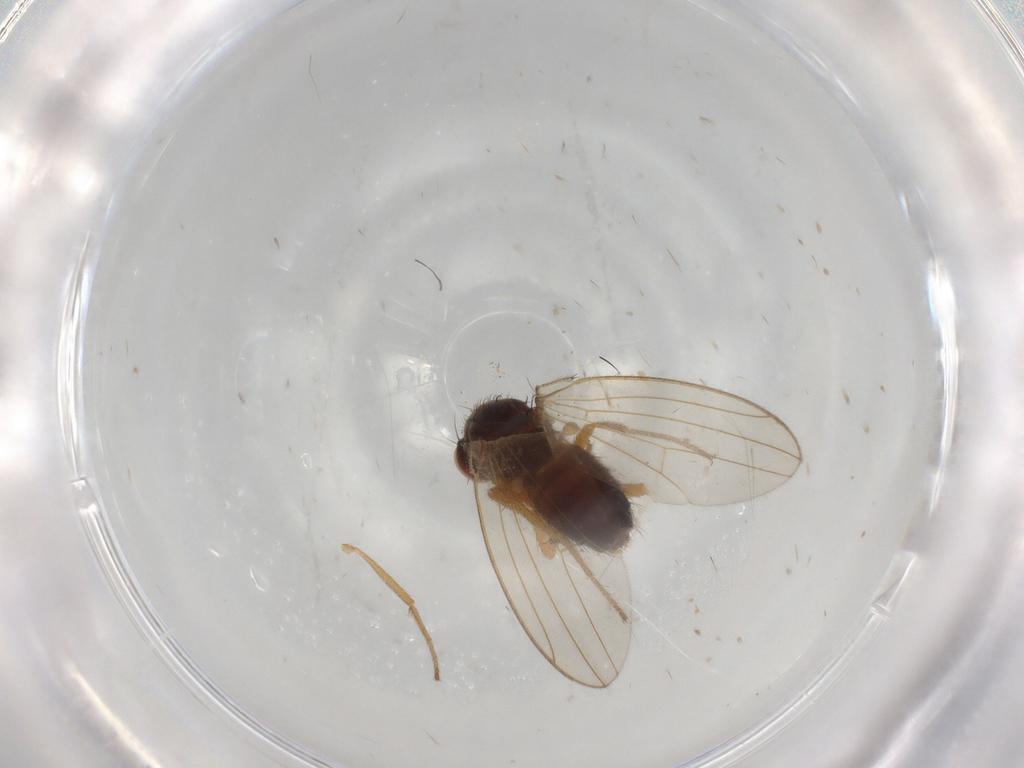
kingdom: Animalia
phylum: Arthropoda
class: Insecta
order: Diptera
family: Drosophilidae
